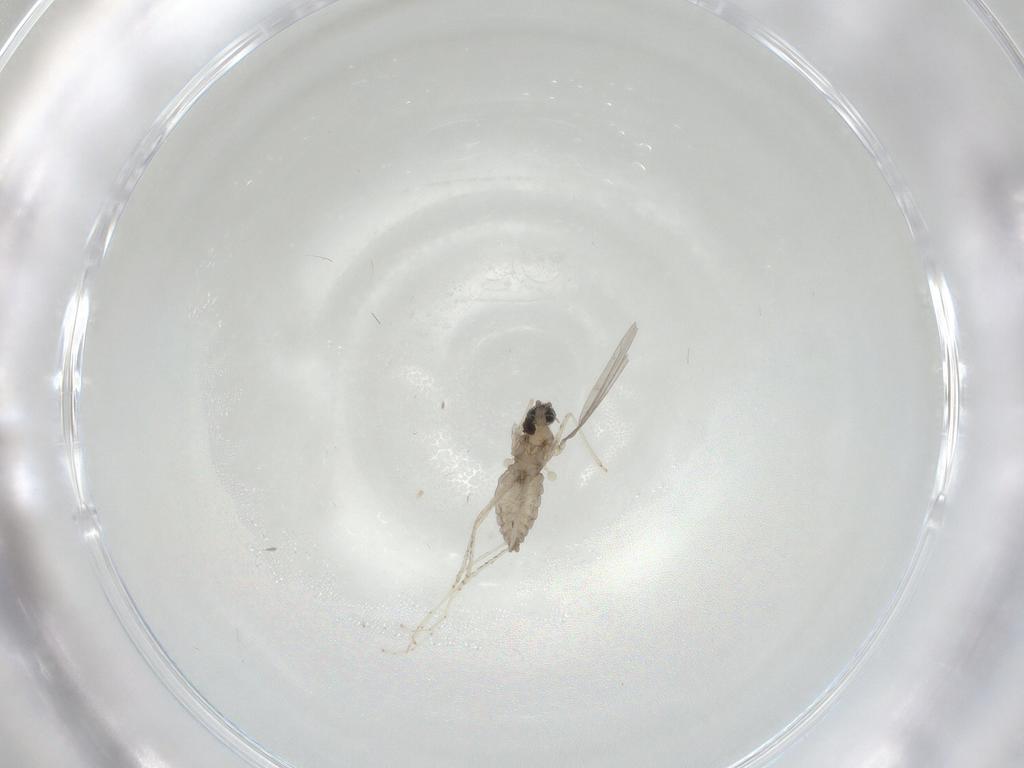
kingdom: Animalia
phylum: Arthropoda
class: Insecta
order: Diptera
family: Cecidomyiidae
